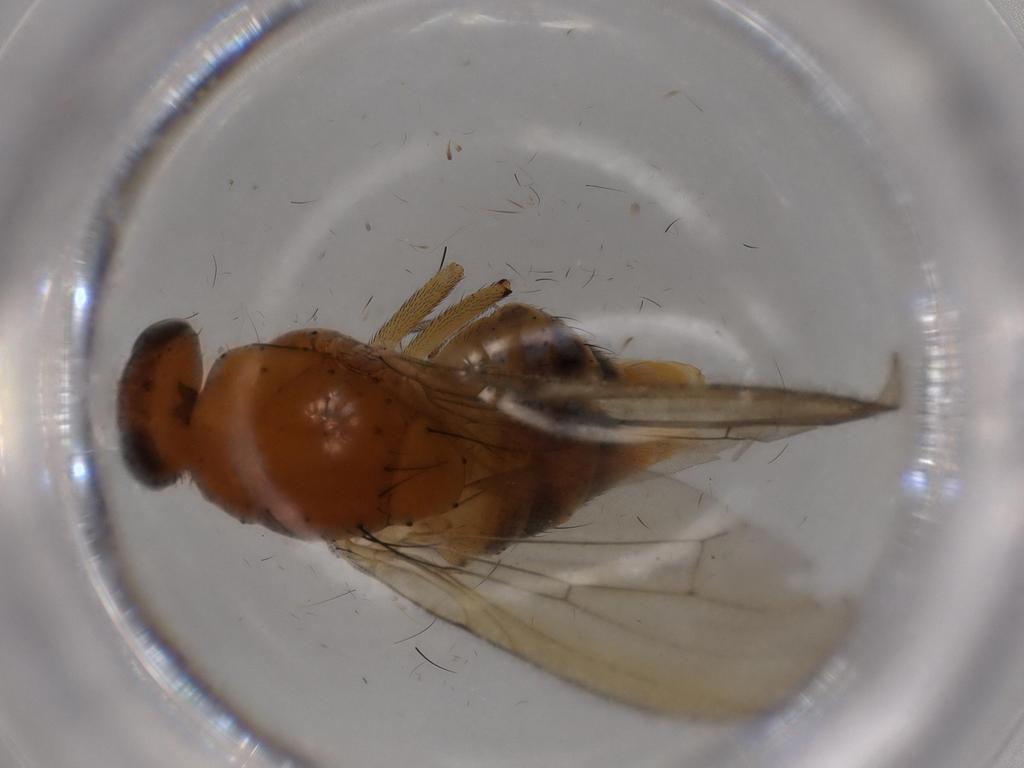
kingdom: Animalia
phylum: Arthropoda
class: Insecta
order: Diptera
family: Lauxaniidae
